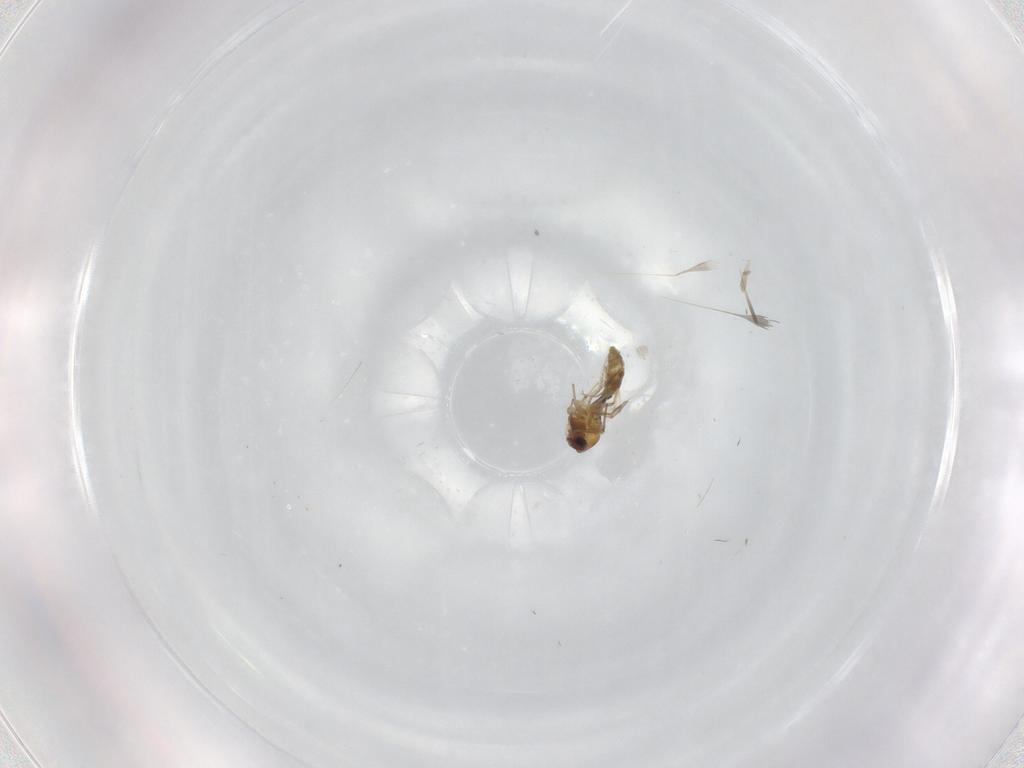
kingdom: Animalia
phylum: Arthropoda
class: Insecta
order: Diptera
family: Chironomidae
